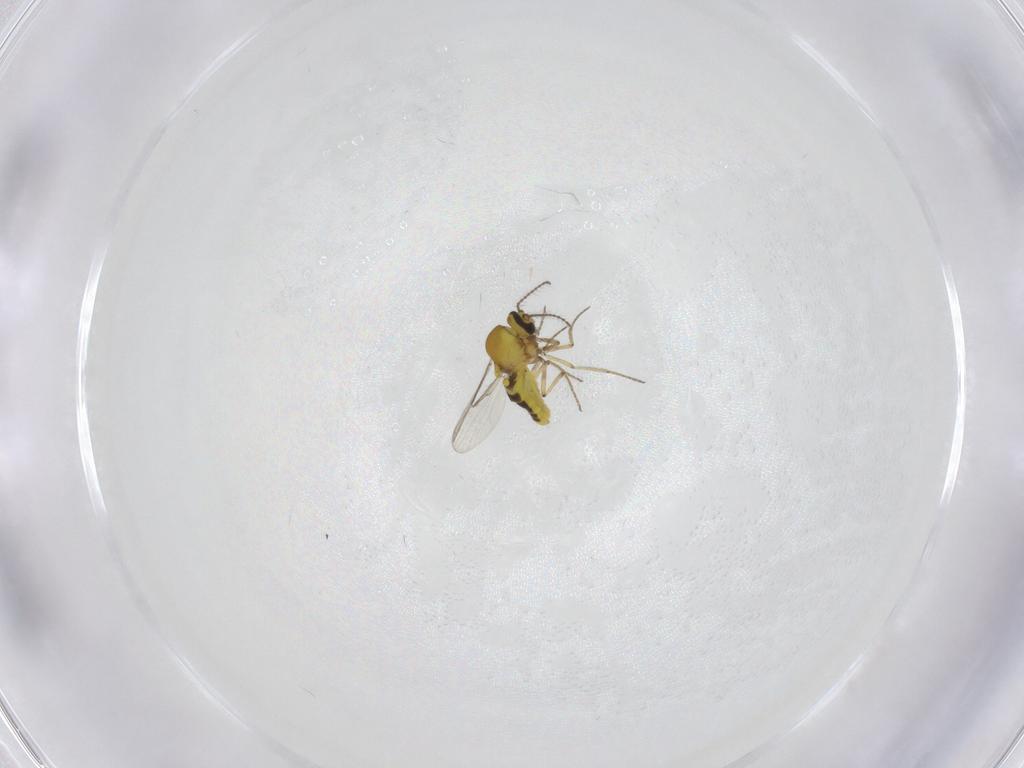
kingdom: Animalia
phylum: Arthropoda
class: Insecta
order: Diptera
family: Cecidomyiidae
